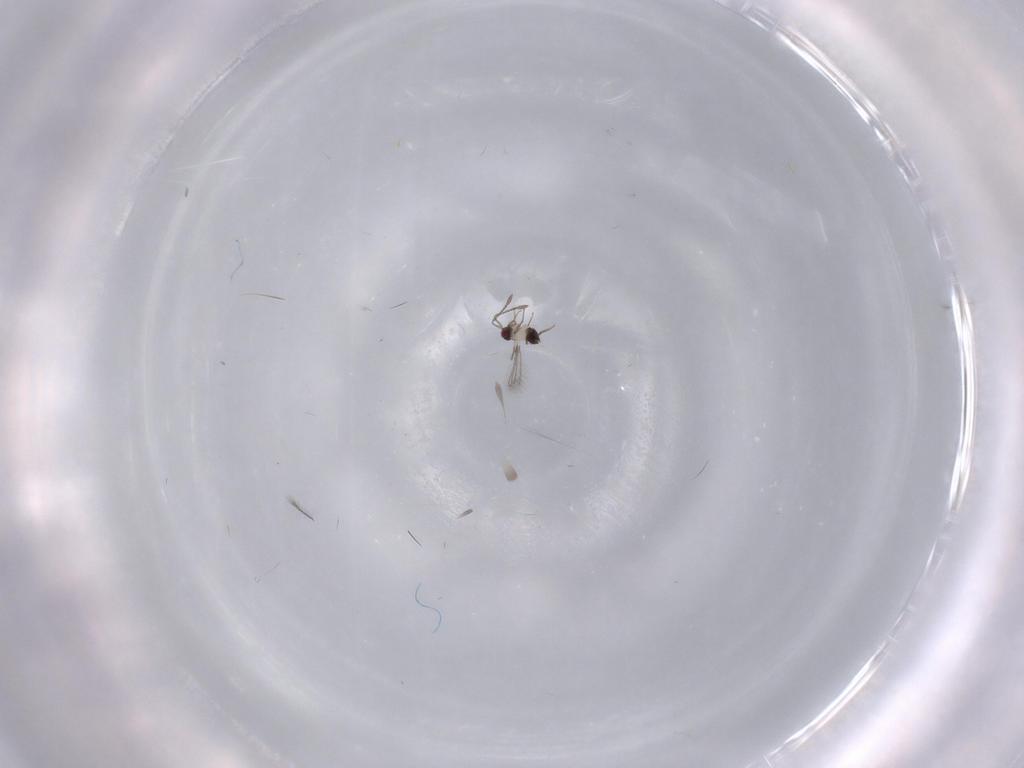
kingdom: Animalia
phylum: Arthropoda
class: Insecta
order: Hymenoptera
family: Mymaridae
